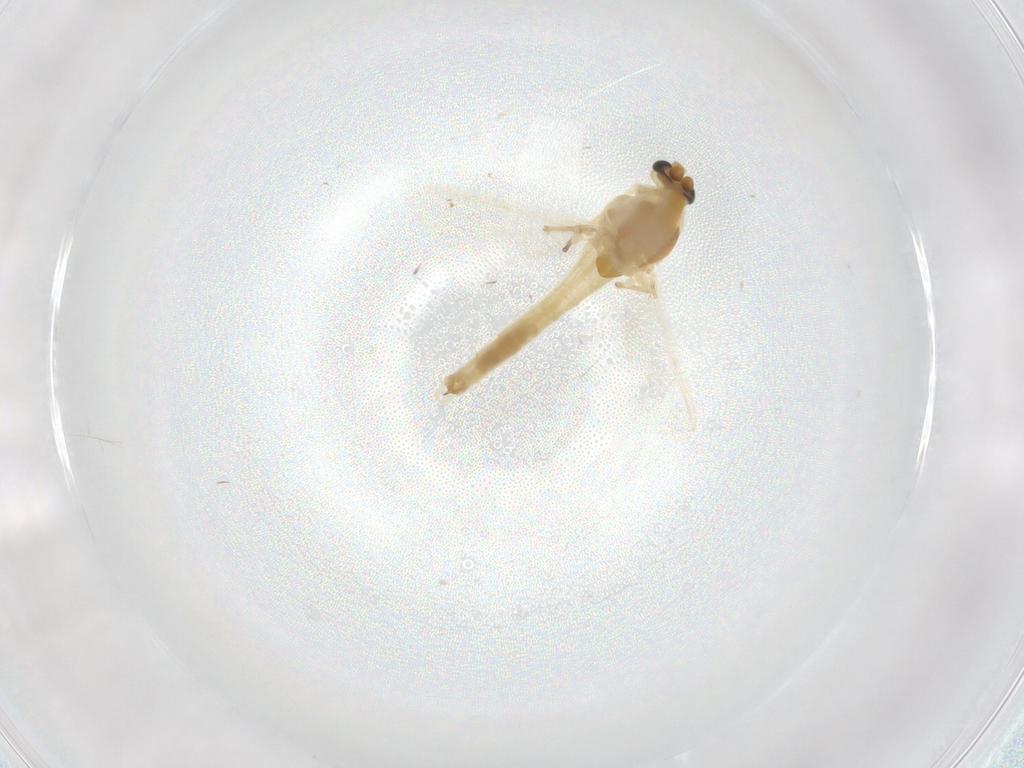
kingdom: Animalia
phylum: Arthropoda
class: Insecta
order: Diptera
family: Chironomidae
